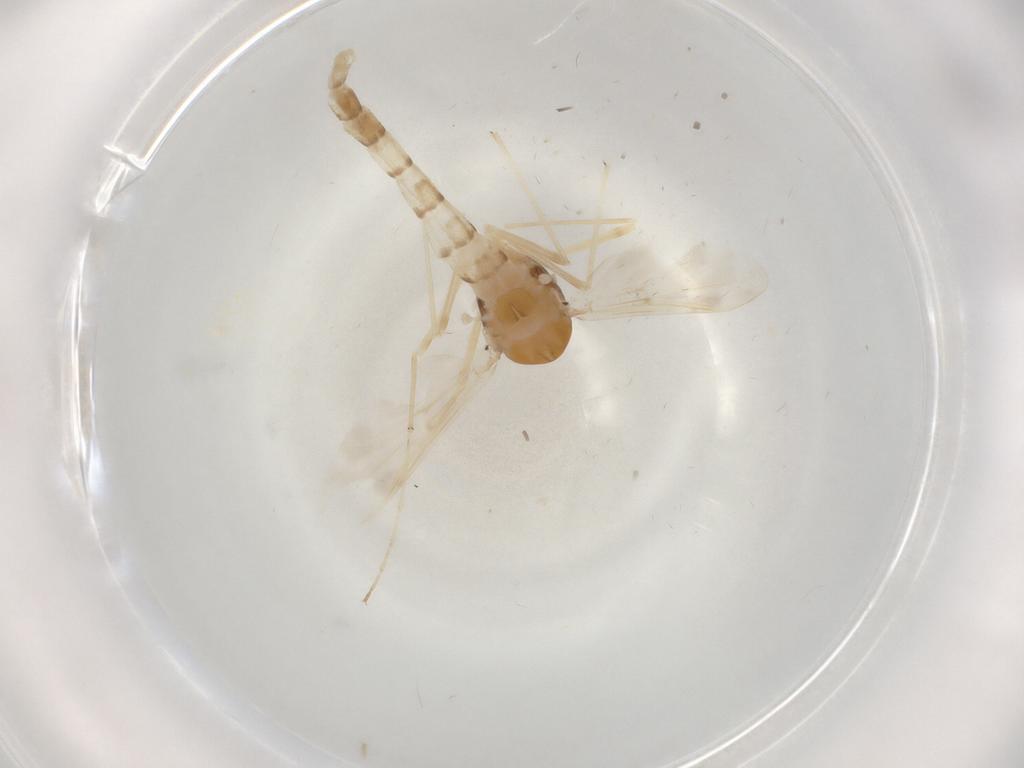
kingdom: Animalia
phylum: Arthropoda
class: Insecta
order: Diptera
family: Chironomidae
